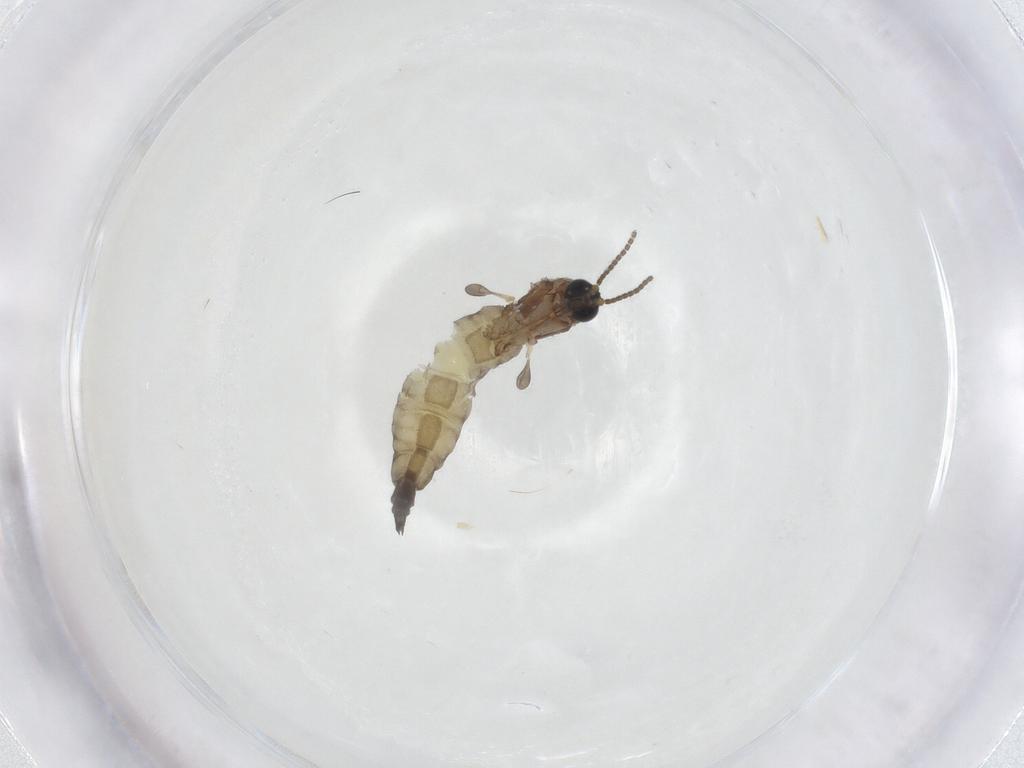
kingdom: Animalia
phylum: Arthropoda
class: Insecta
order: Diptera
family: Sciaridae
